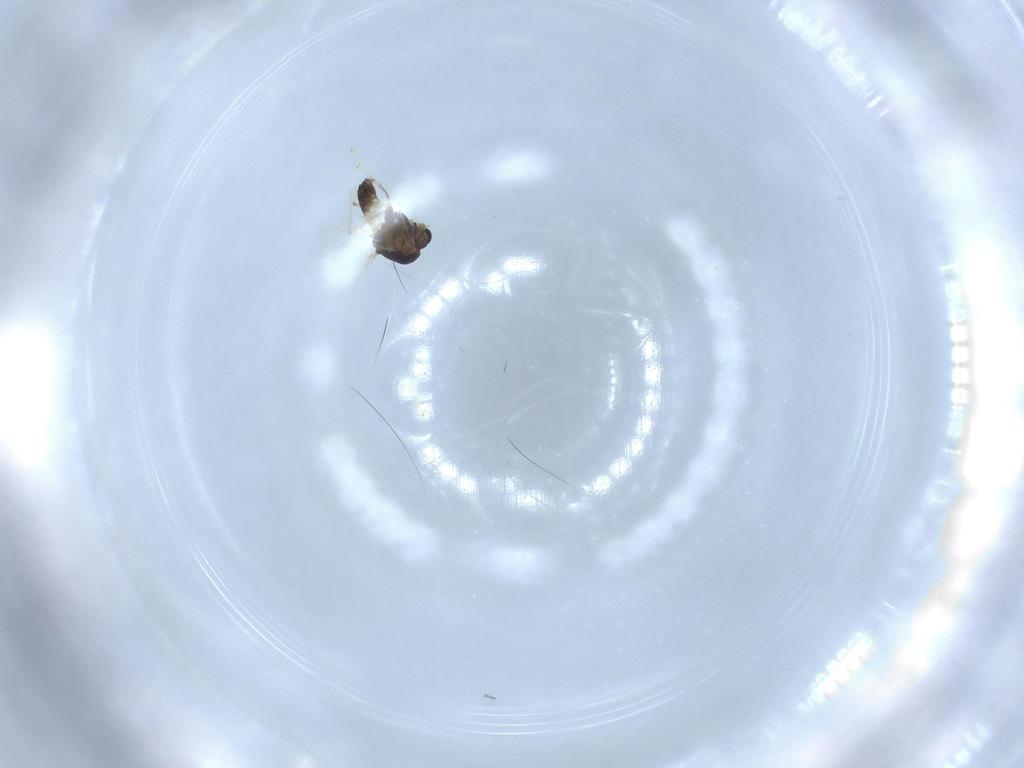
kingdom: Animalia
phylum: Arthropoda
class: Insecta
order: Diptera
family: Chironomidae
